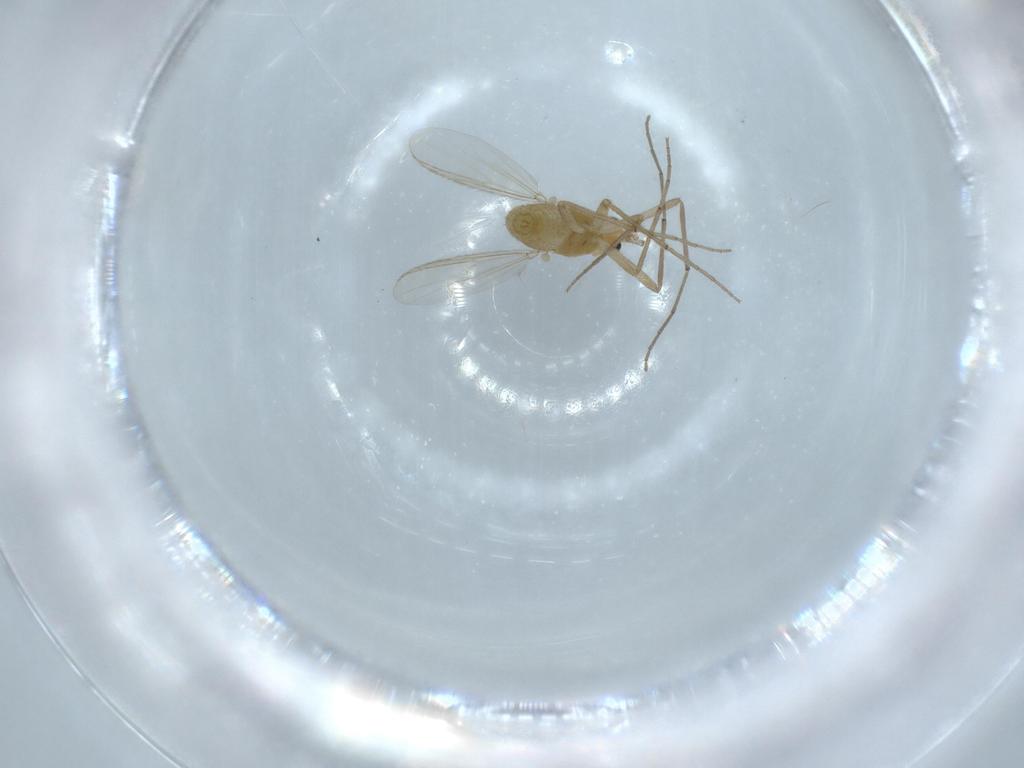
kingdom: Animalia
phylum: Arthropoda
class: Insecta
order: Diptera
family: Chironomidae
